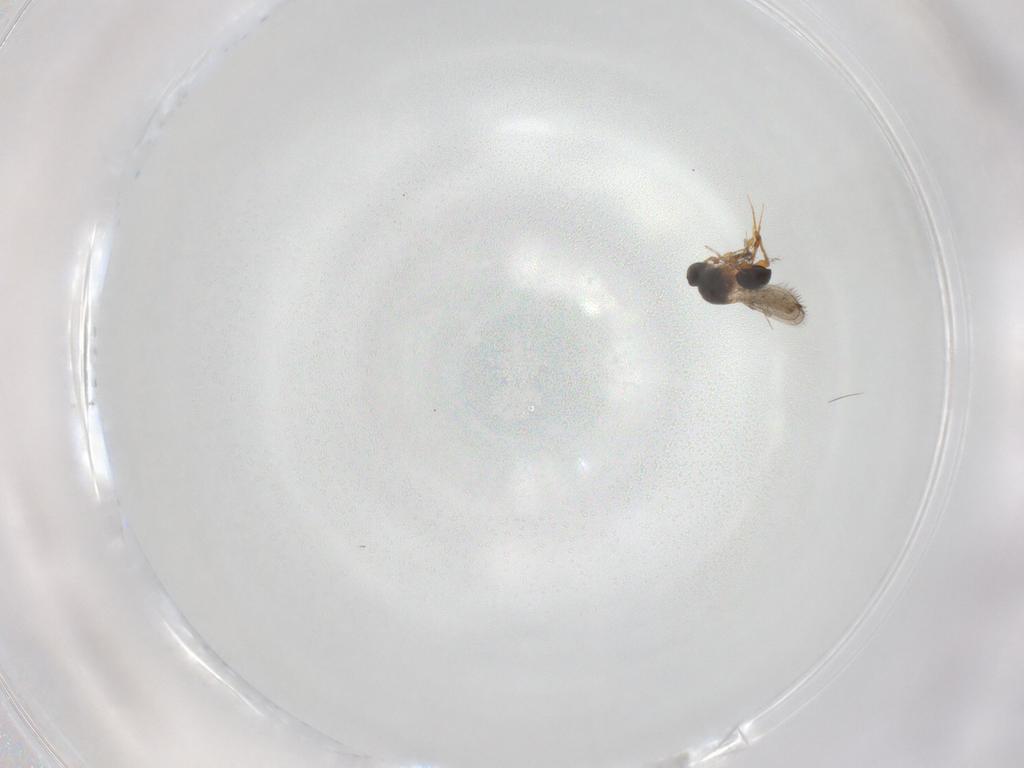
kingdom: Animalia
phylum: Arthropoda
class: Insecta
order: Hymenoptera
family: Platygastridae
